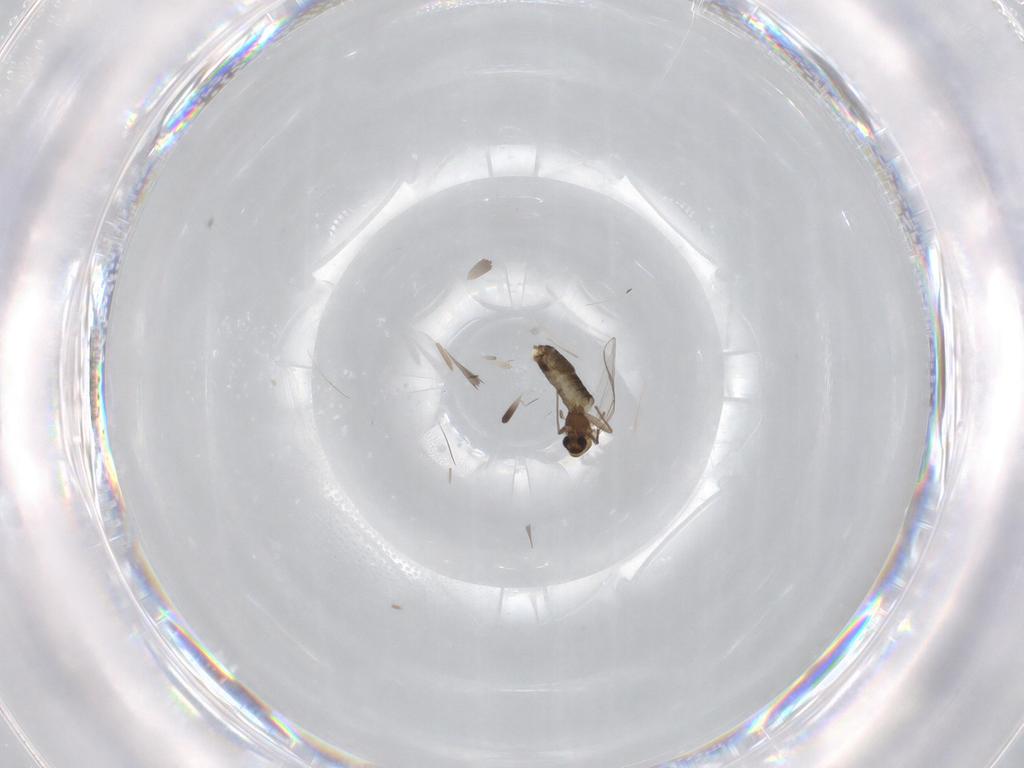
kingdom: Animalia
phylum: Arthropoda
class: Insecta
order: Diptera
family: Chironomidae
